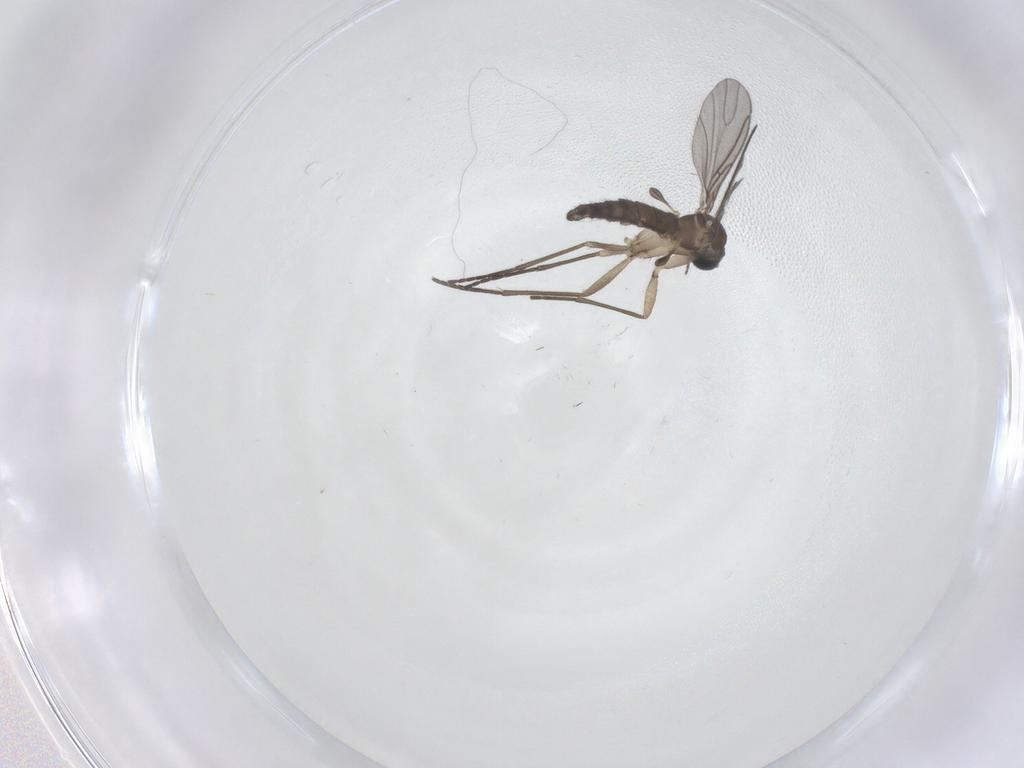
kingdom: Animalia
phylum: Arthropoda
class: Insecta
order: Diptera
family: Sciaridae
